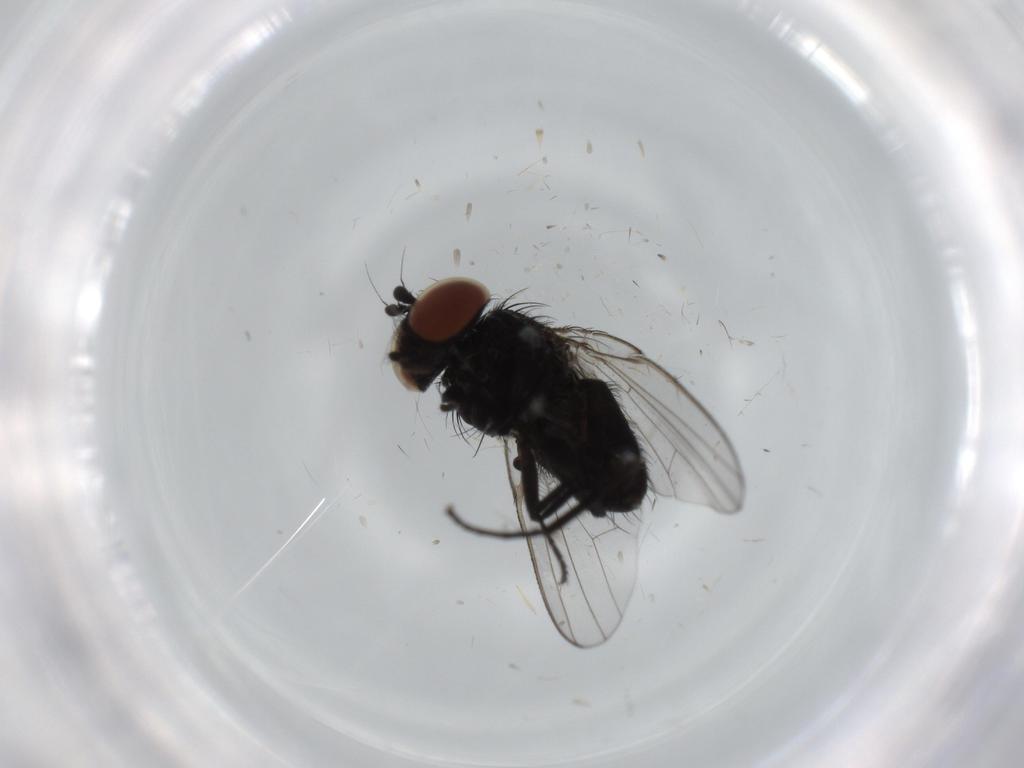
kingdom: Animalia
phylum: Arthropoda
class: Insecta
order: Diptera
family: Milichiidae
